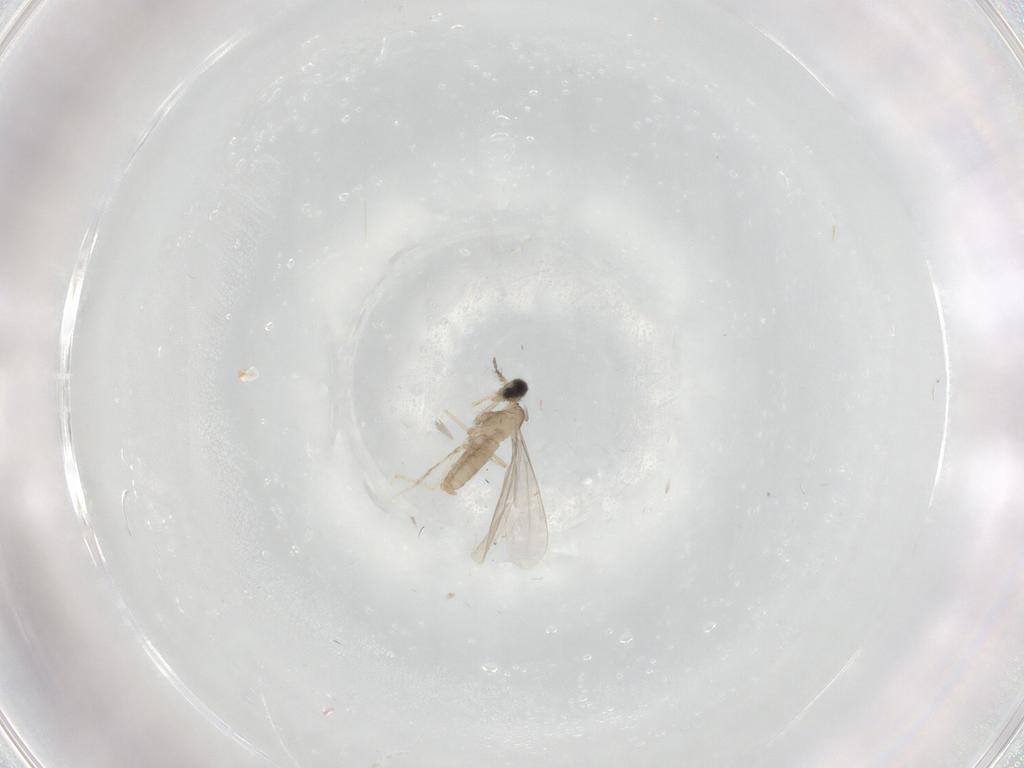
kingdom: Animalia
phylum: Arthropoda
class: Insecta
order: Diptera
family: Cecidomyiidae
